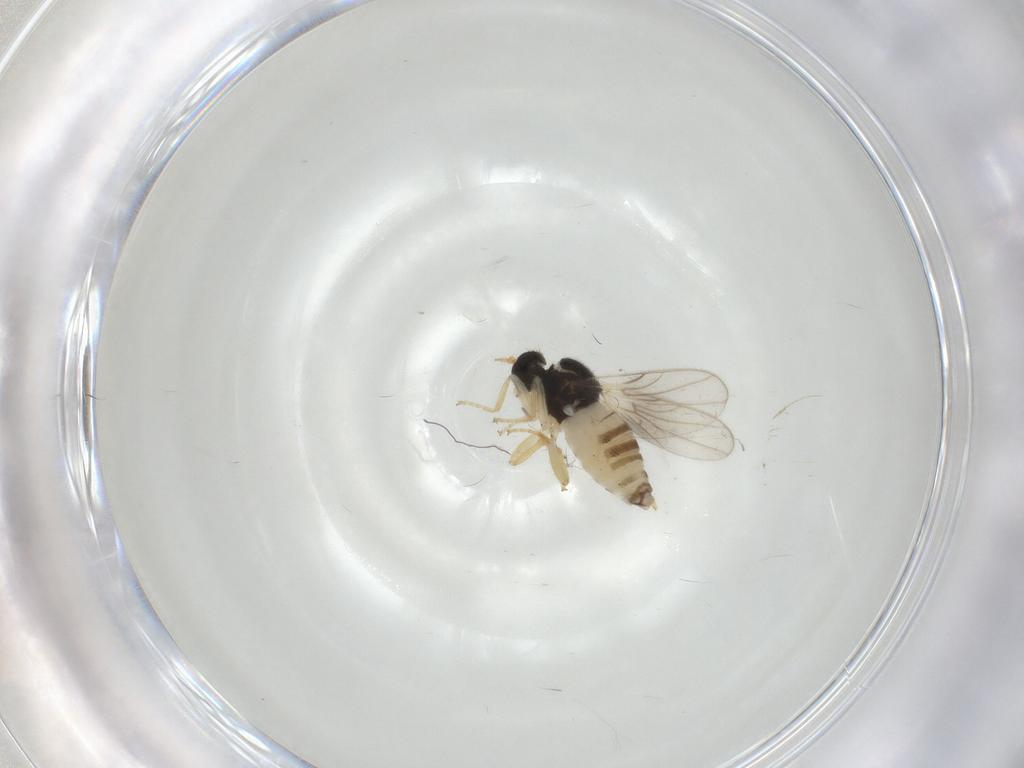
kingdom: Animalia
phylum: Arthropoda
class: Insecta
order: Diptera
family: Hybotidae
